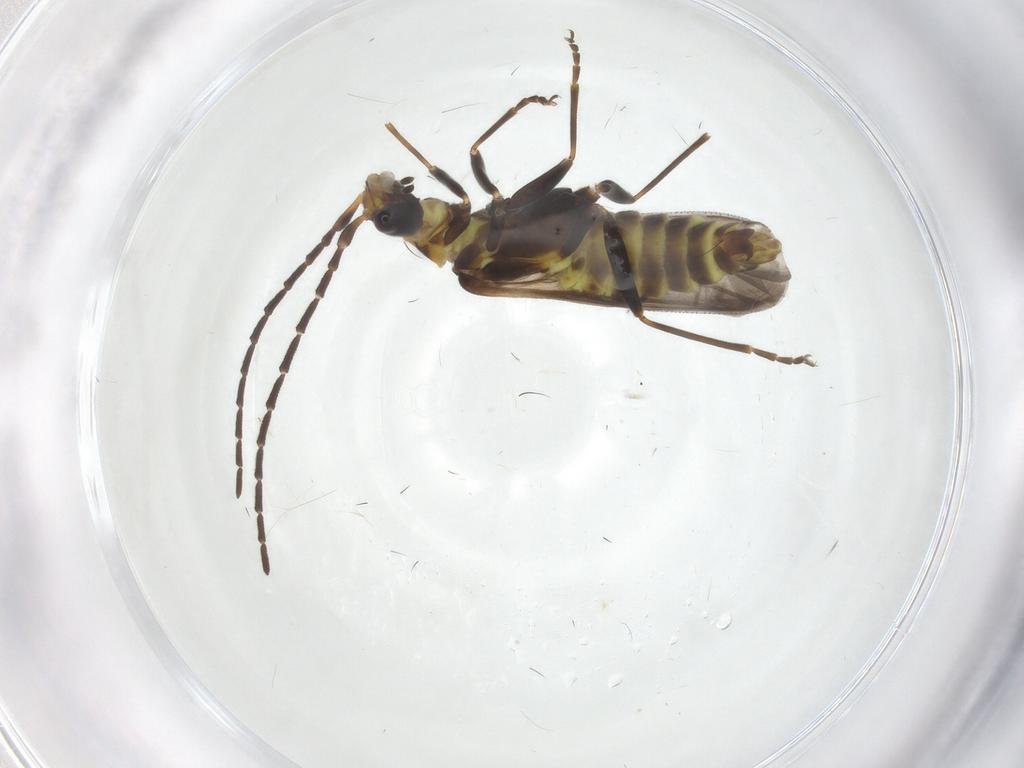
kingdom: Animalia
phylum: Arthropoda
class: Insecta
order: Coleoptera
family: Cantharidae
